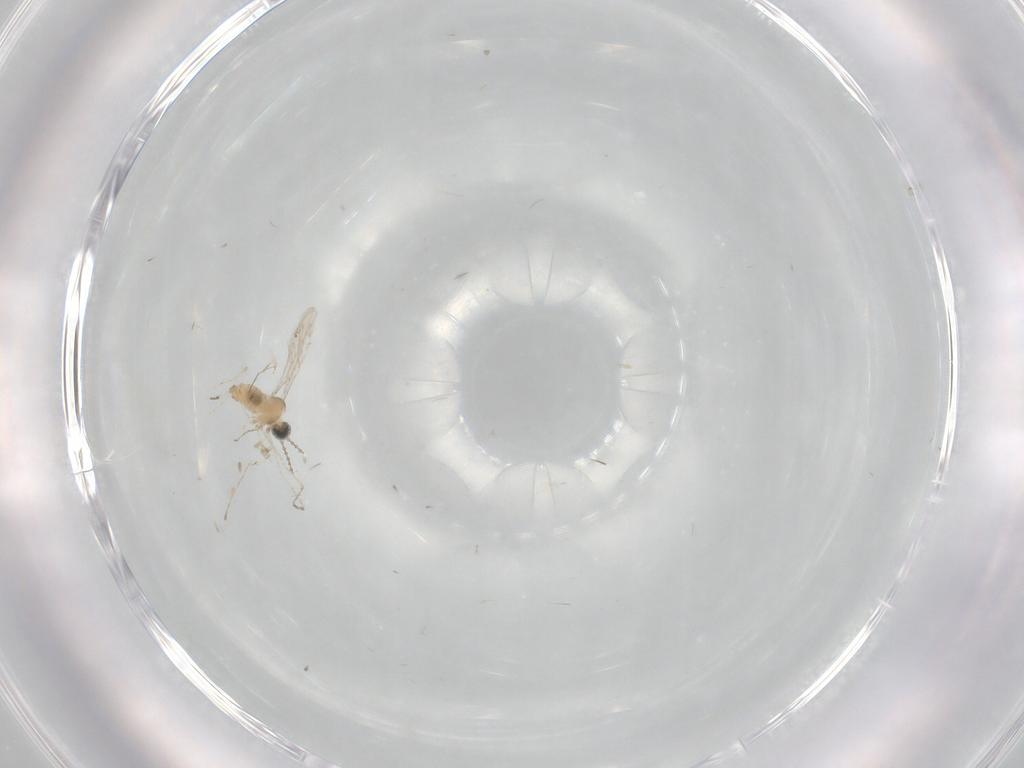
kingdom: Animalia
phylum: Arthropoda
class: Insecta
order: Diptera
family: Cecidomyiidae
